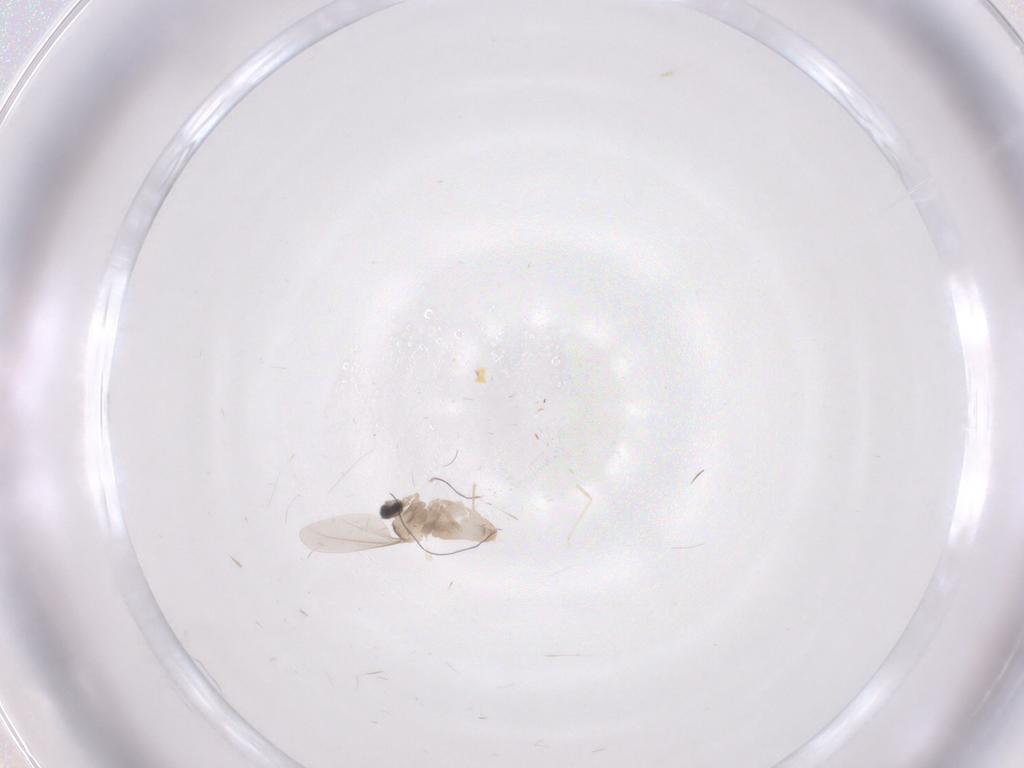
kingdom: Animalia
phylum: Arthropoda
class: Insecta
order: Diptera
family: Cecidomyiidae
